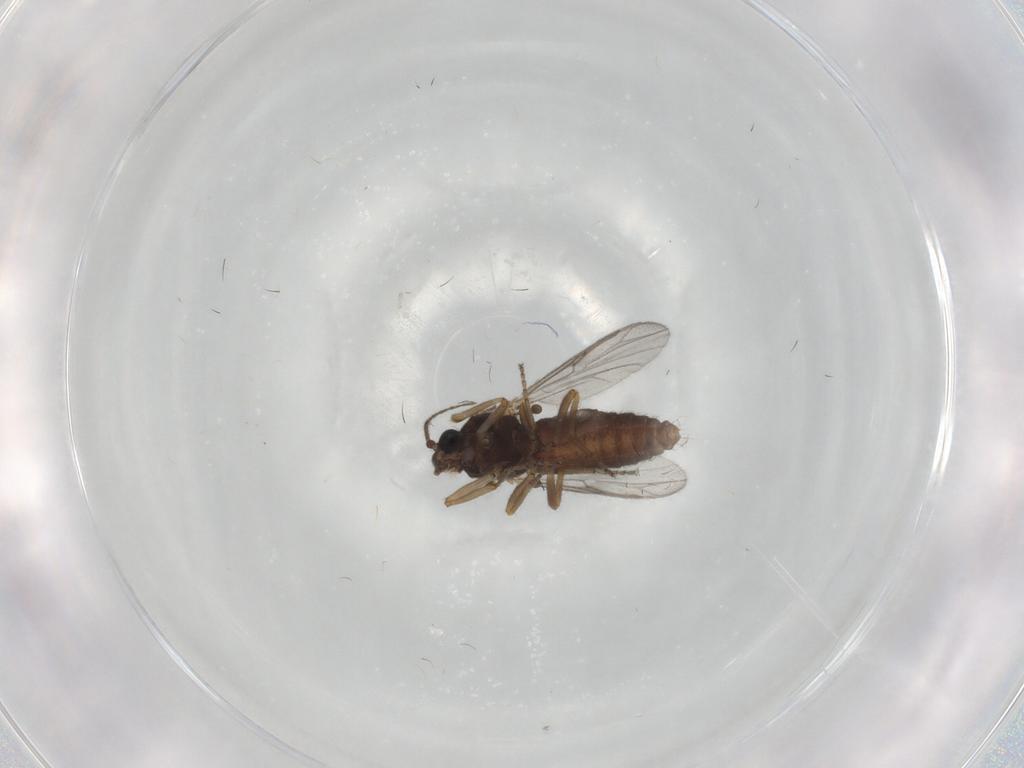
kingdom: Animalia
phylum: Arthropoda
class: Insecta
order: Diptera
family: Ceratopogonidae
